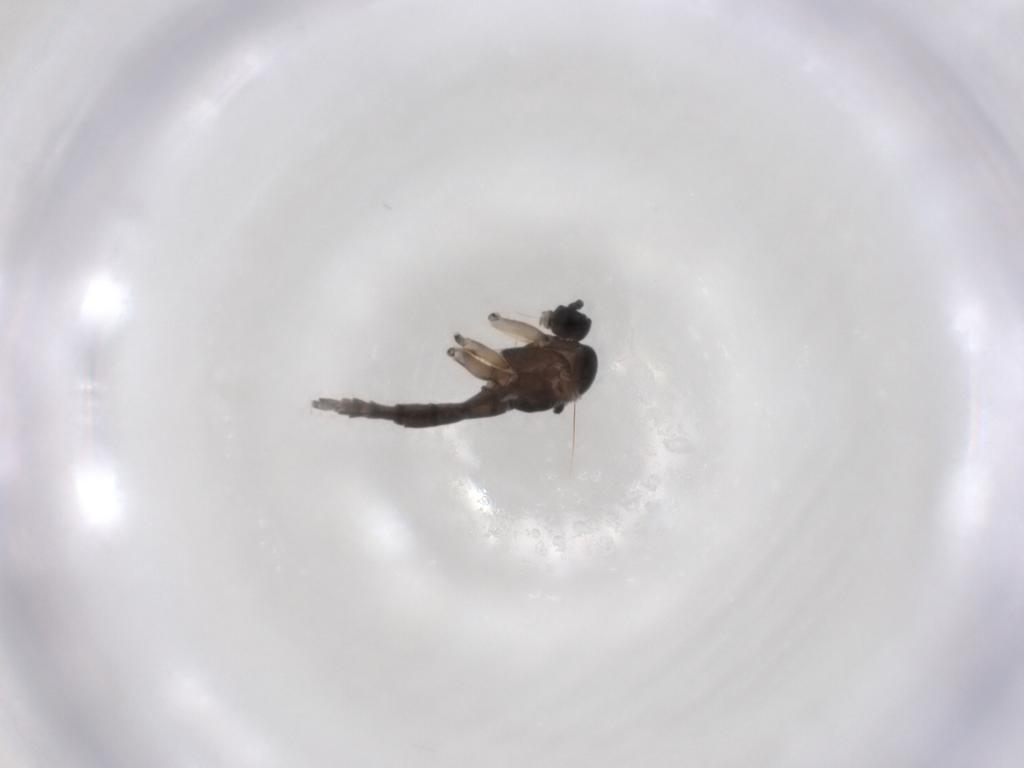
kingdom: Animalia
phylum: Arthropoda
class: Insecta
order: Diptera
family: Sciaridae
